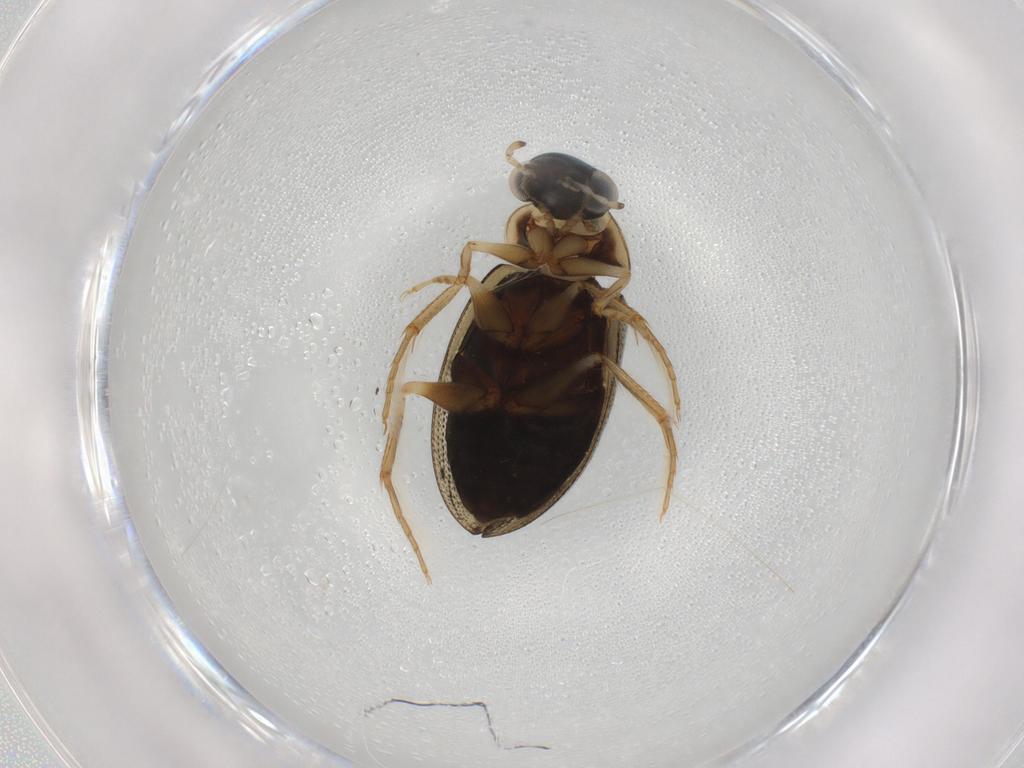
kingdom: Animalia
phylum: Arthropoda
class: Insecta
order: Coleoptera
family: Hydrophilidae
